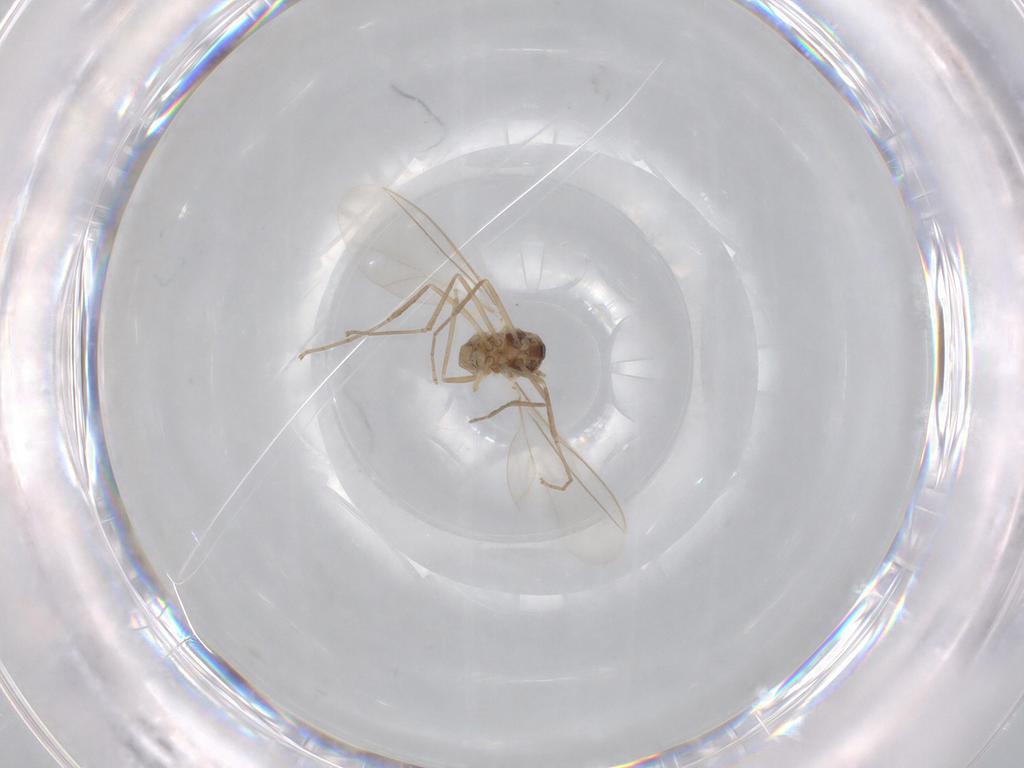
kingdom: Animalia
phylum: Arthropoda
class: Insecta
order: Diptera
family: Cecidomyiidae
